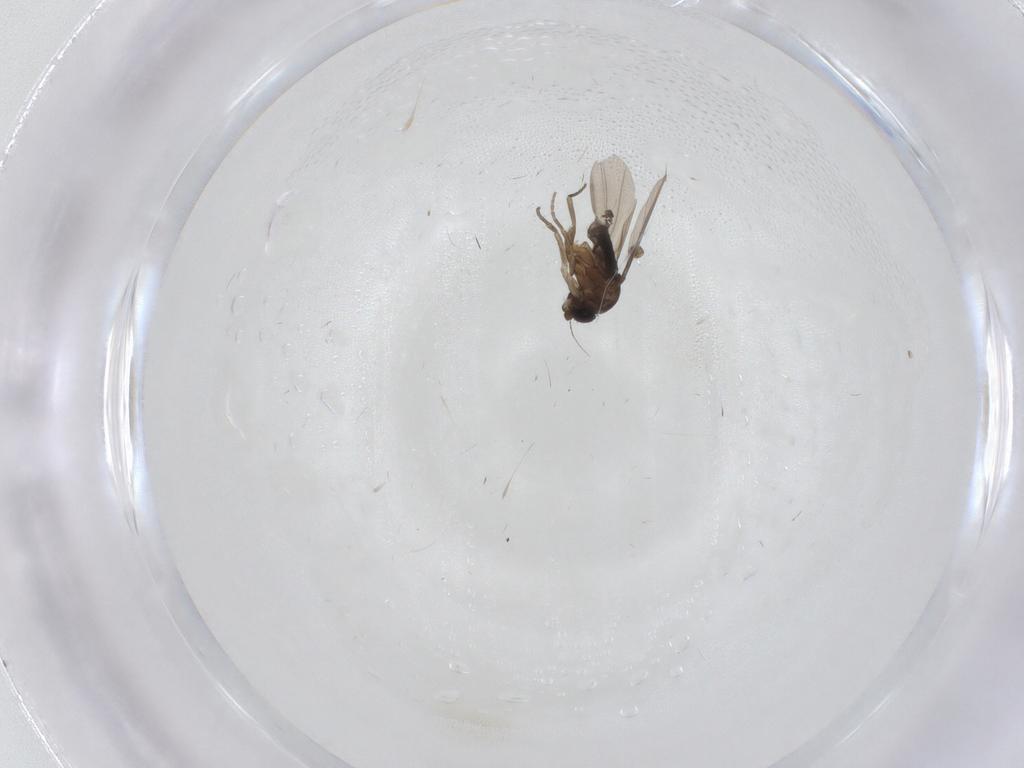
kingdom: Animalia
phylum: Arthropoda
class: Insecta
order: Diptera
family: Phoridae
